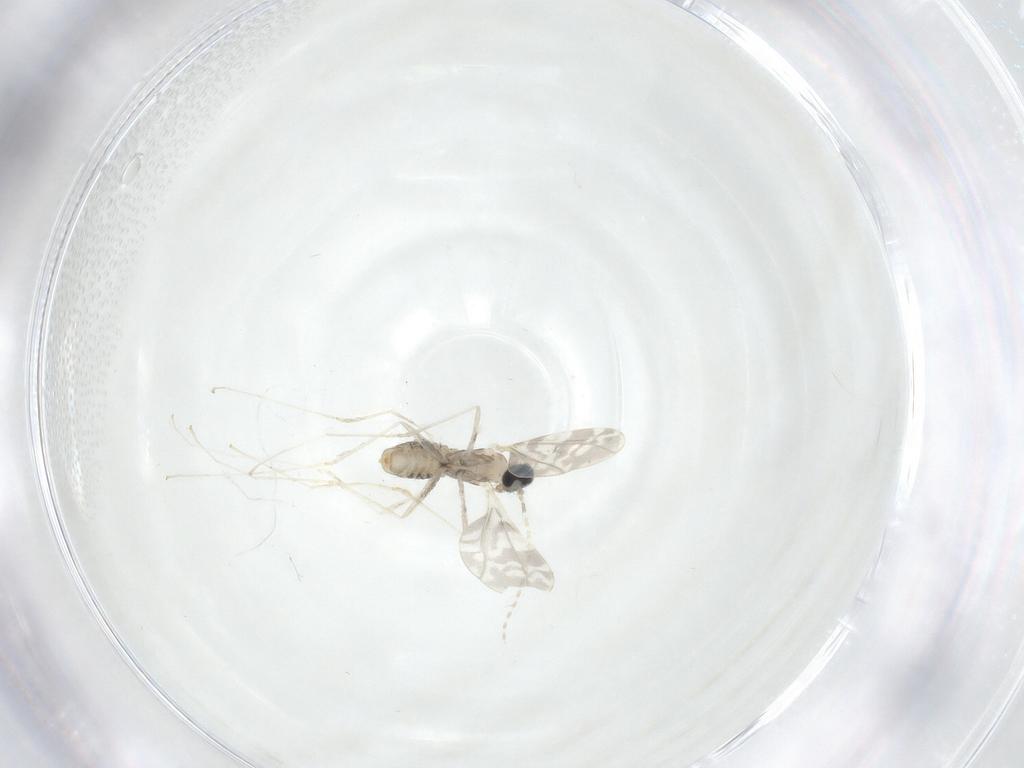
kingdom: Animalia
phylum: Arthropoda
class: Insecta
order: Diptera
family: Cecidomyiidae
